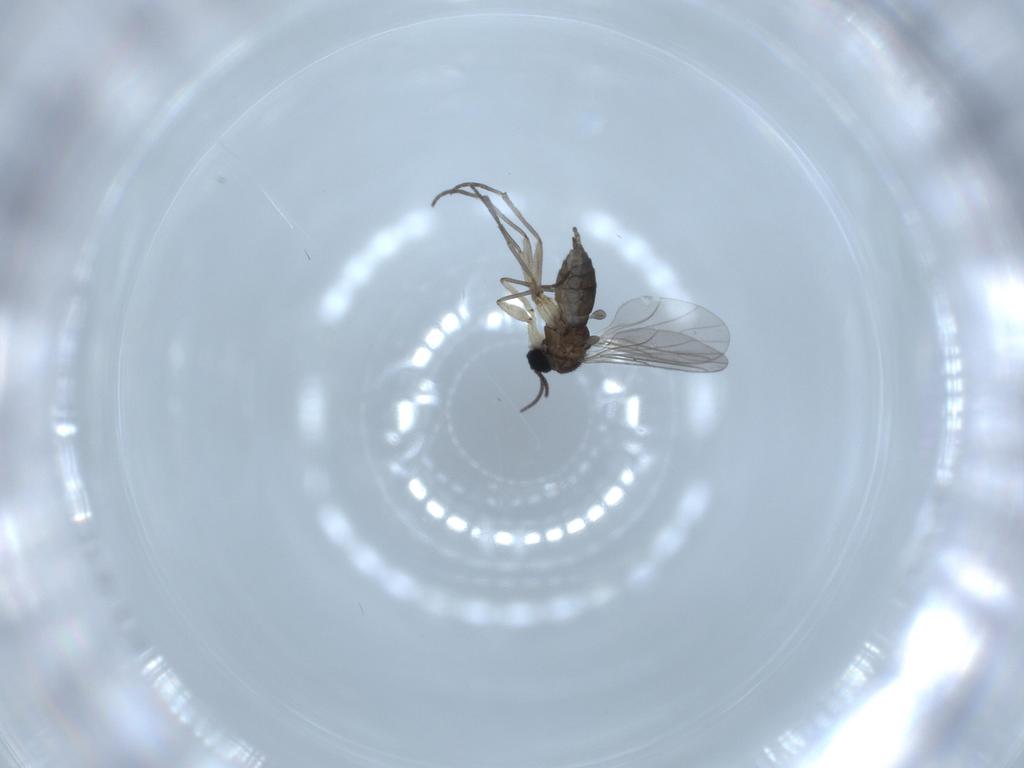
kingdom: Animalia
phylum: Arthropoda
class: Insecta
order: Diptera
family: Sciaridae
